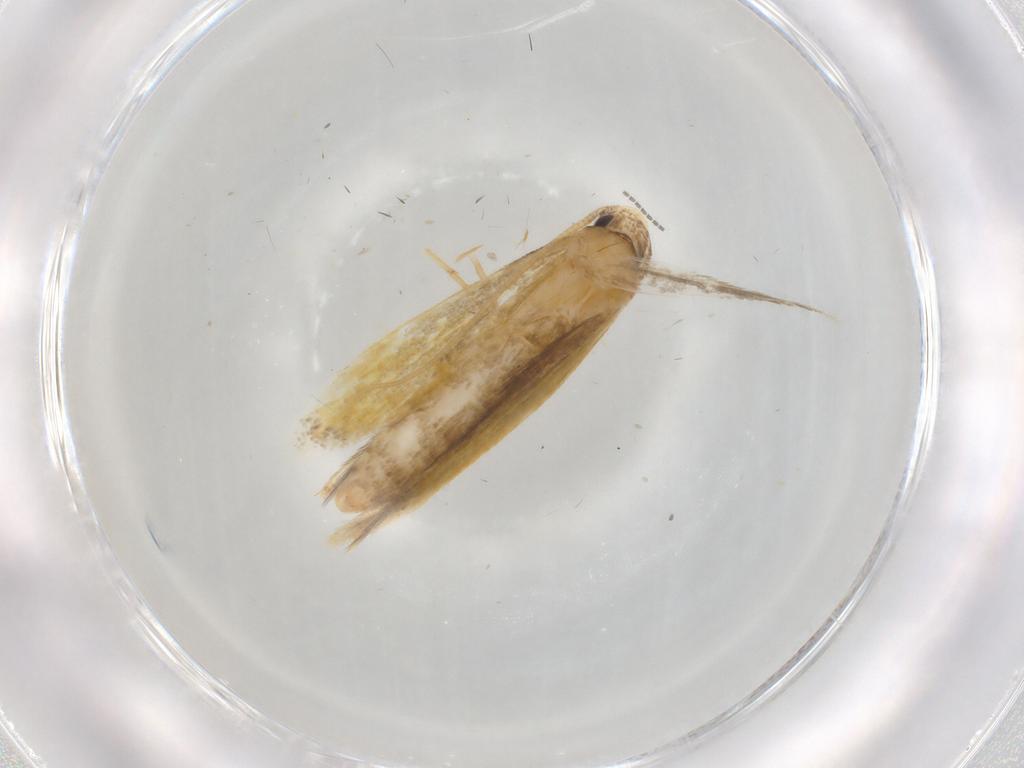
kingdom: Animalia
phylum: Arthropoda
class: Insecta
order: Lepidoptera
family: Tineidae
